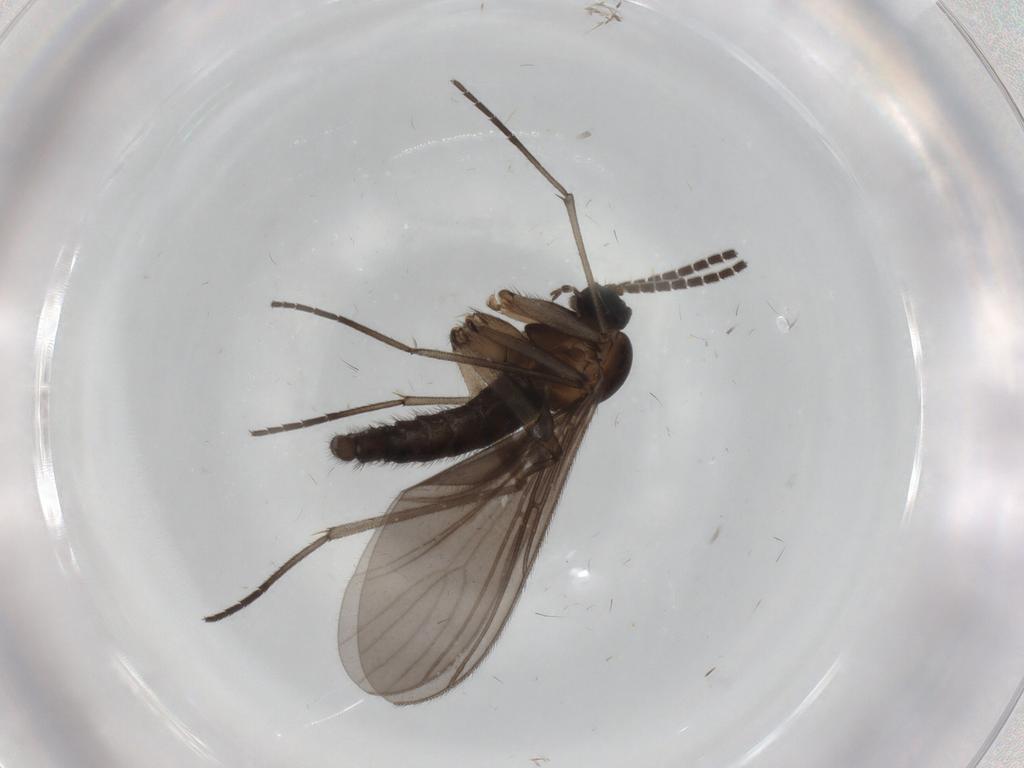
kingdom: Animalia
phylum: Arthropoda
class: Insecta
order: Diptera
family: Sciaridae
